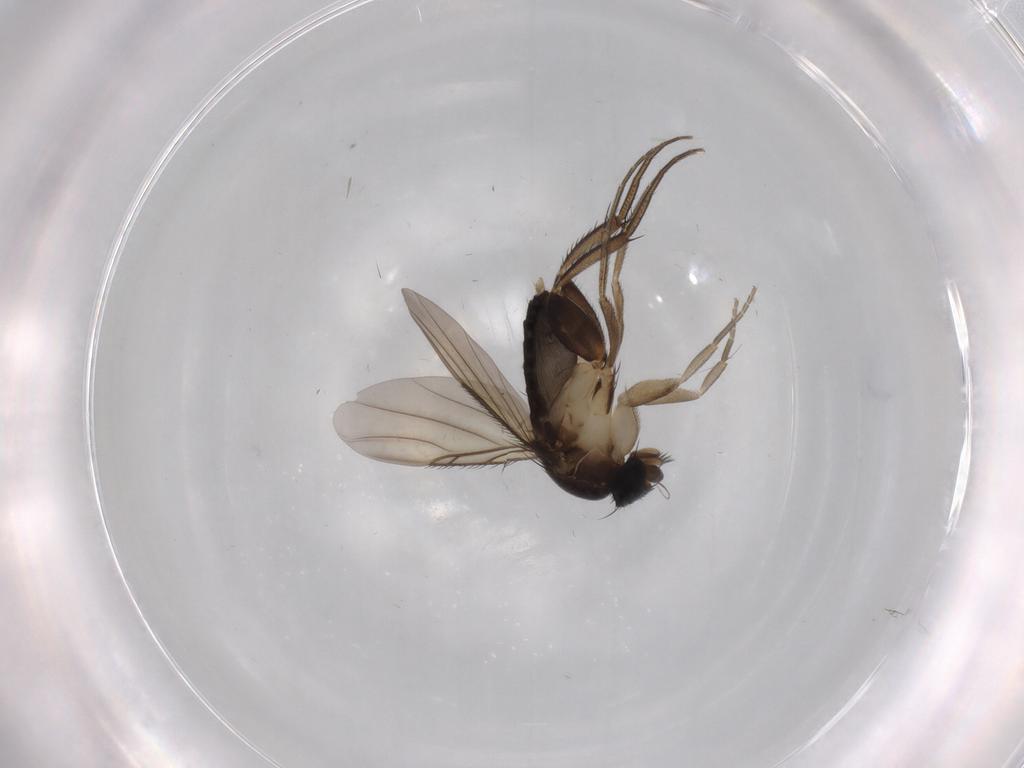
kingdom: Animalia
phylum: Arthropoda
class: Insecta
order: Diptera
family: Phoridae
